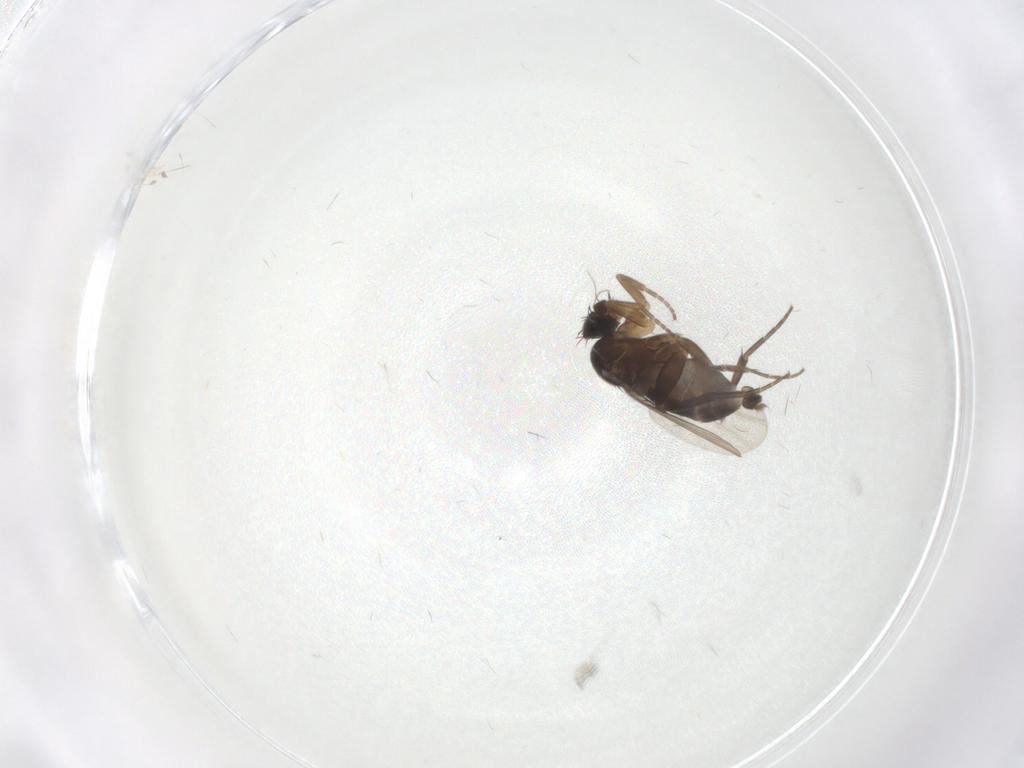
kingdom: Animalia
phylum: Arthropoda
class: Insecta
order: Diptera
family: Phoridae
